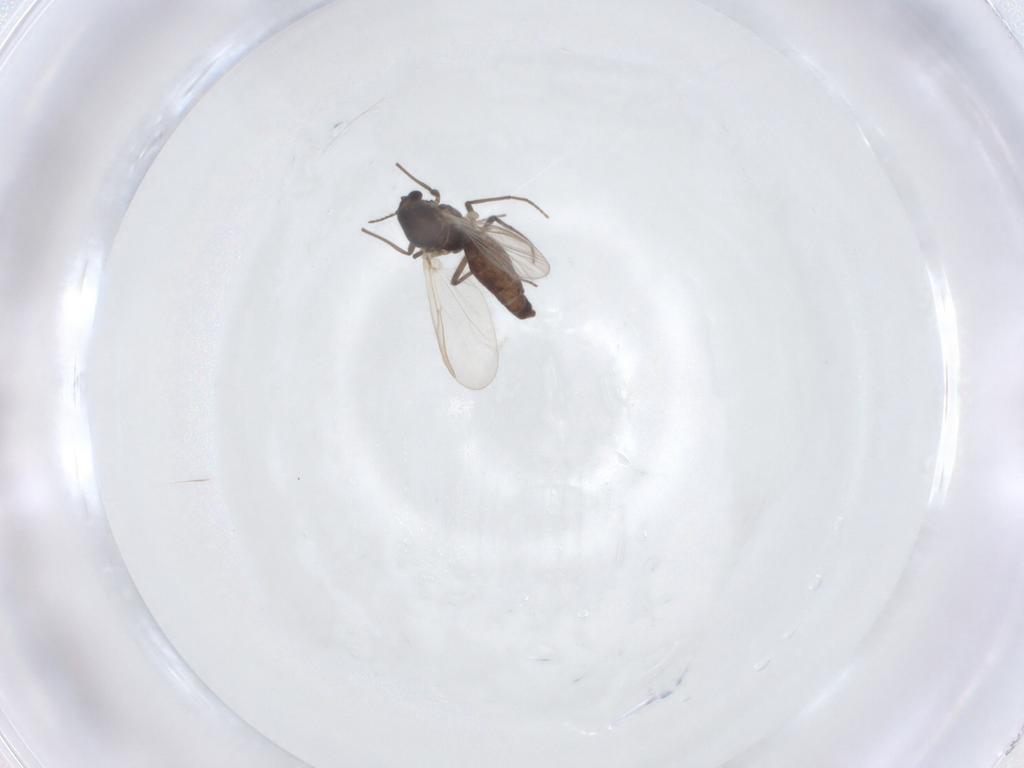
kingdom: Animalia
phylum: Arthropoda
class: Insecta
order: Diptera
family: Chironomidae
